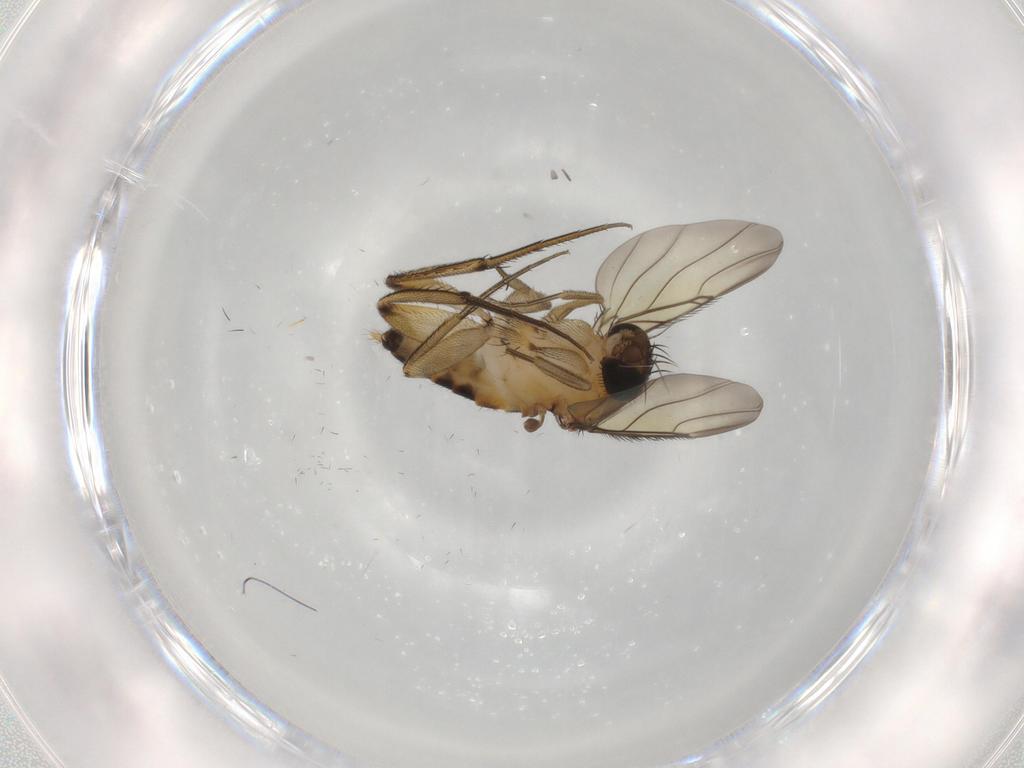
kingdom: Animalia
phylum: Arthropoda
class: Insecta
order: Diptera
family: Phoridae
